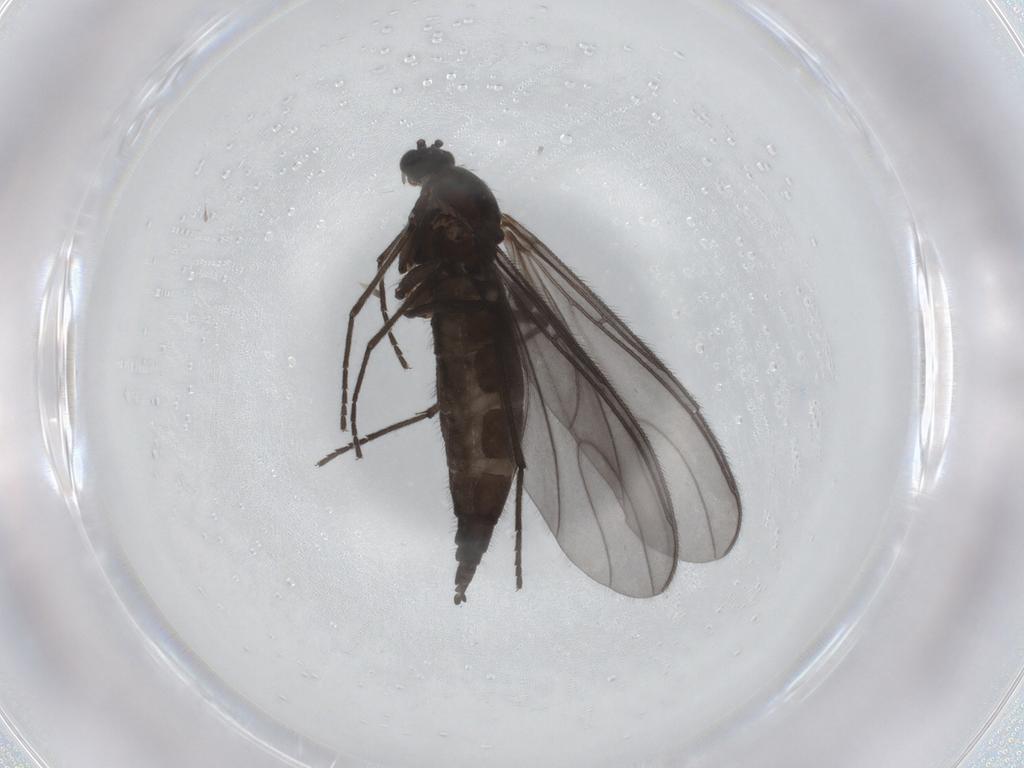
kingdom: Animalia
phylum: Arthropoda
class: Insecta
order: Diptera
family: Sciaridae
